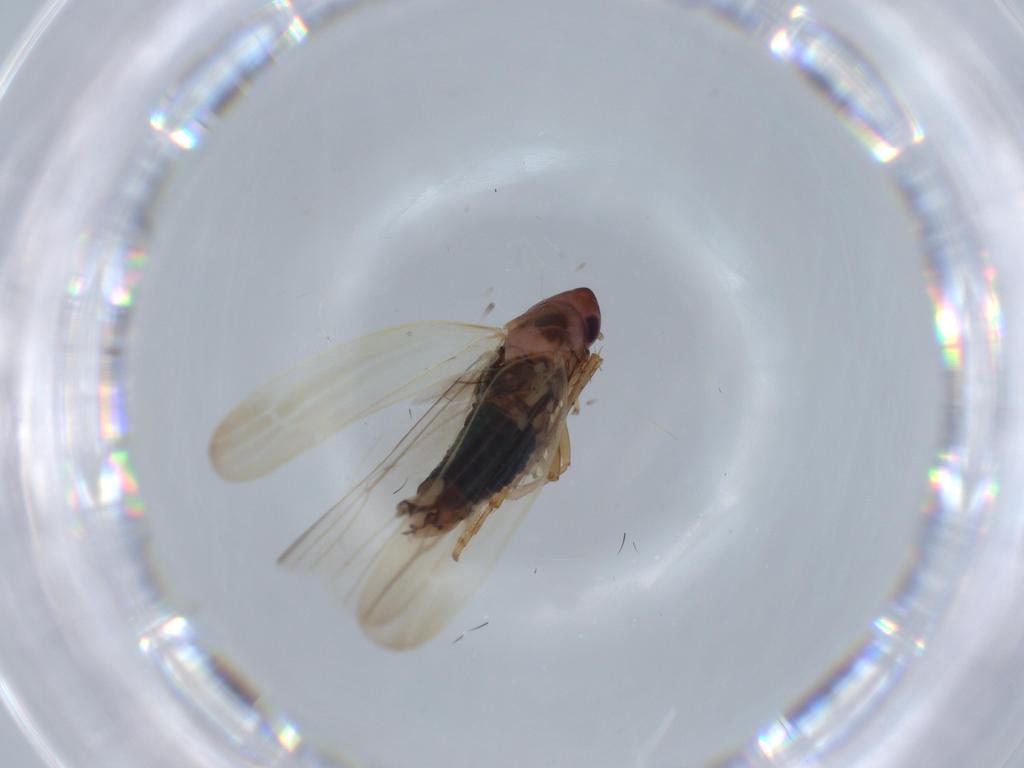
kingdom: Animalia
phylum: Arthropoda
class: Insecta
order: Hemiptera
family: Cicadellidae
